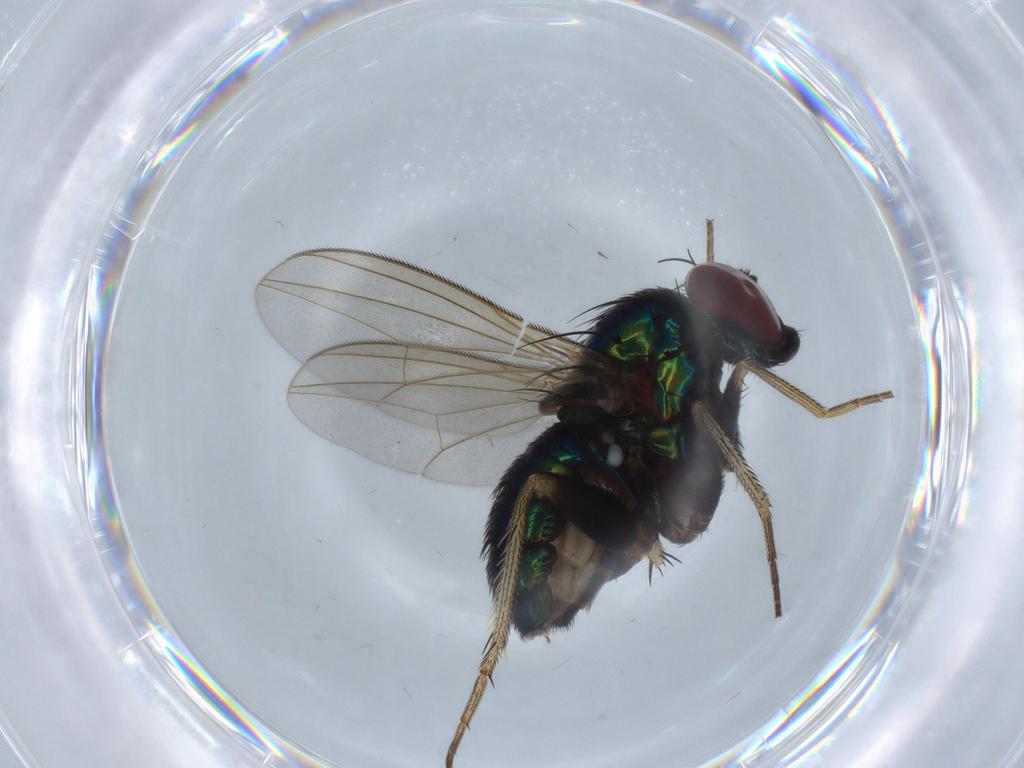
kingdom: Animalia
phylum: Arthropoda
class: Insecta
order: Diptera
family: Dolichopodidae
